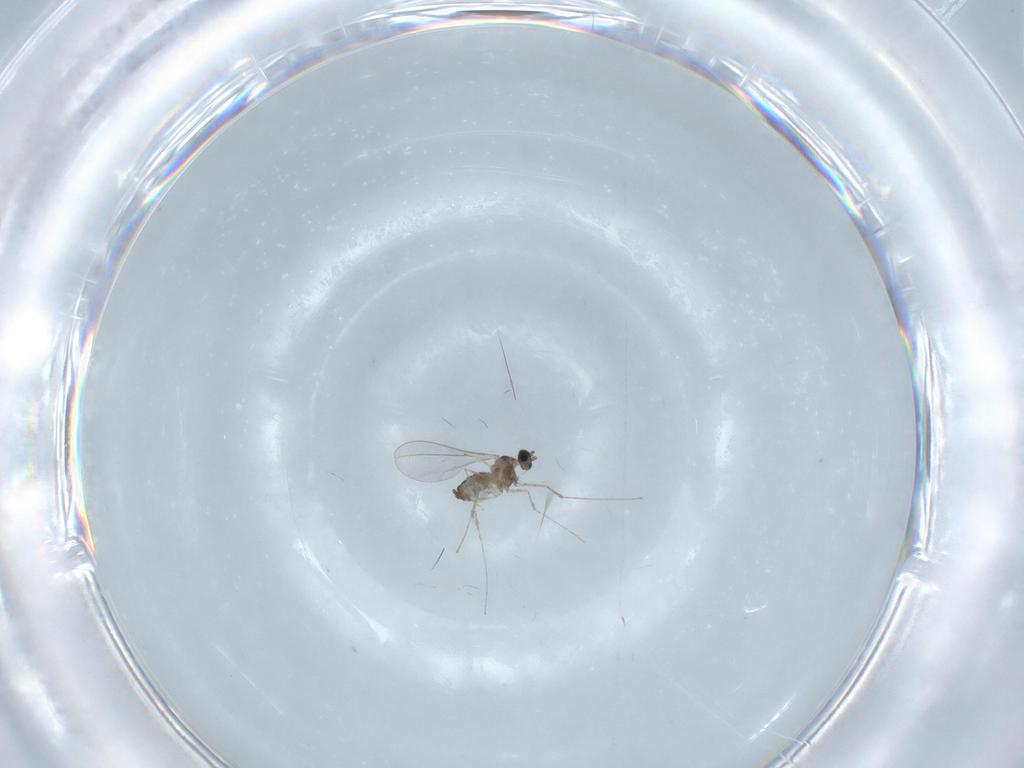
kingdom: Animalia
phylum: Arthropoda
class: Insecta
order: Diptera
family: Cecidomyiidae
